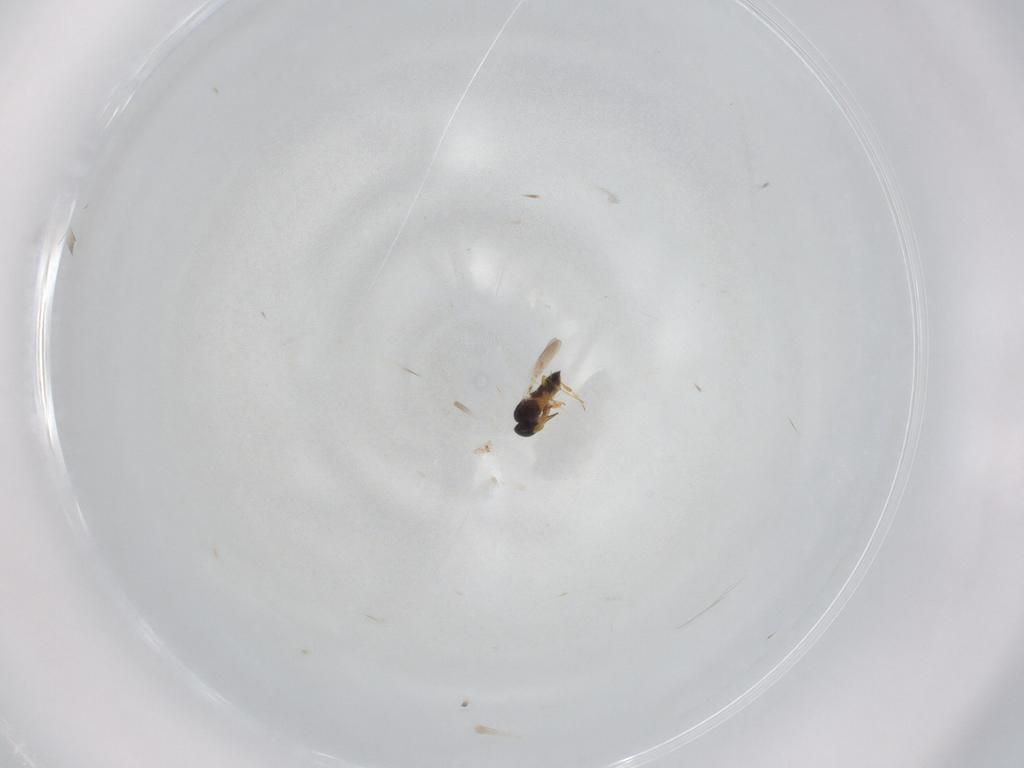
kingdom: Animalia
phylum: Arthropoda
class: Insecta
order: Hymenoptera
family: Platygastridae
